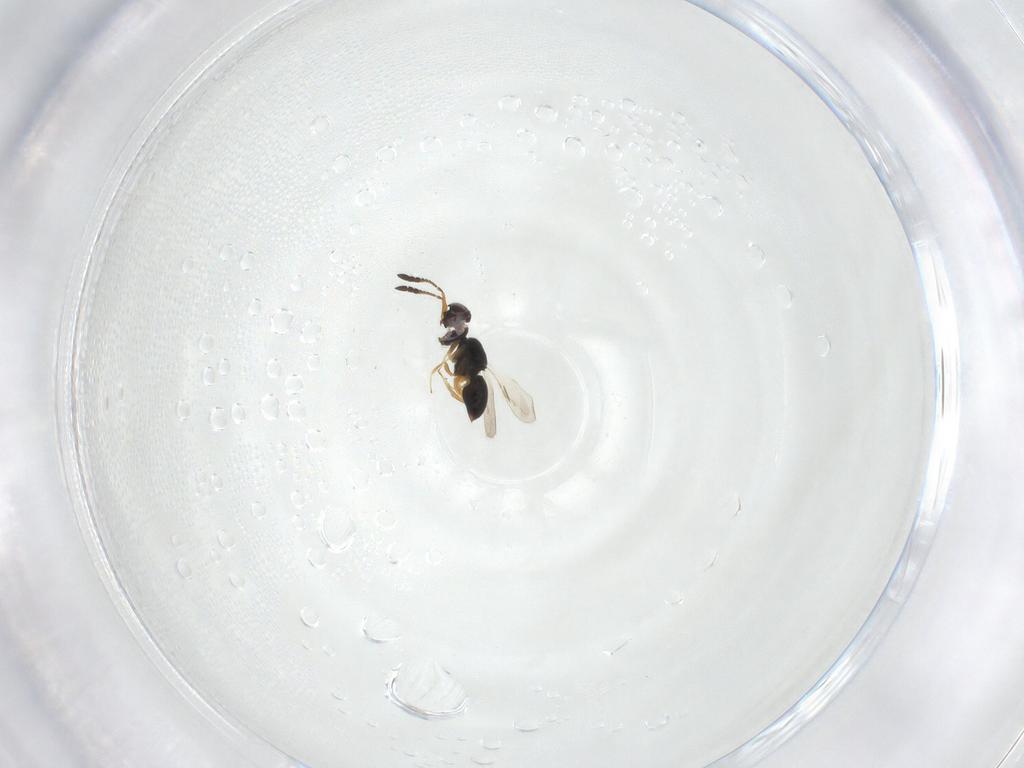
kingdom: Animalia
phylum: Arthropoda
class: Insecta
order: Hymenoptera
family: Ceraphronidae
